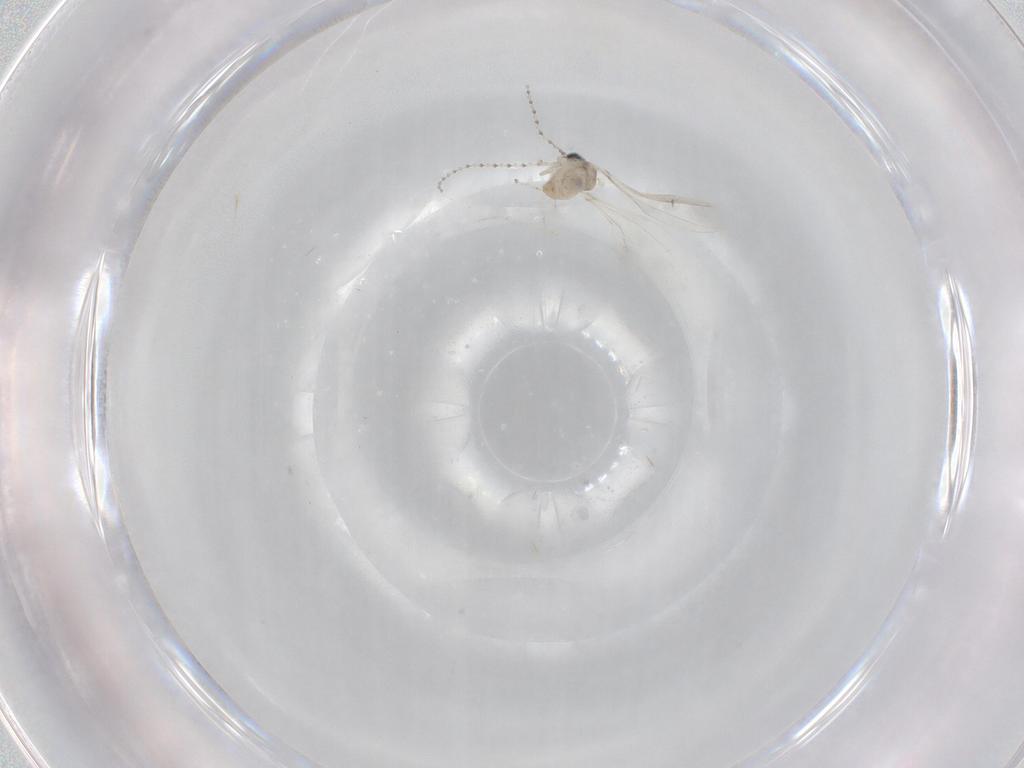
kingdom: Animalia
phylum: Arthropoda
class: Insecta
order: Diptera
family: Cecidomyiidae
